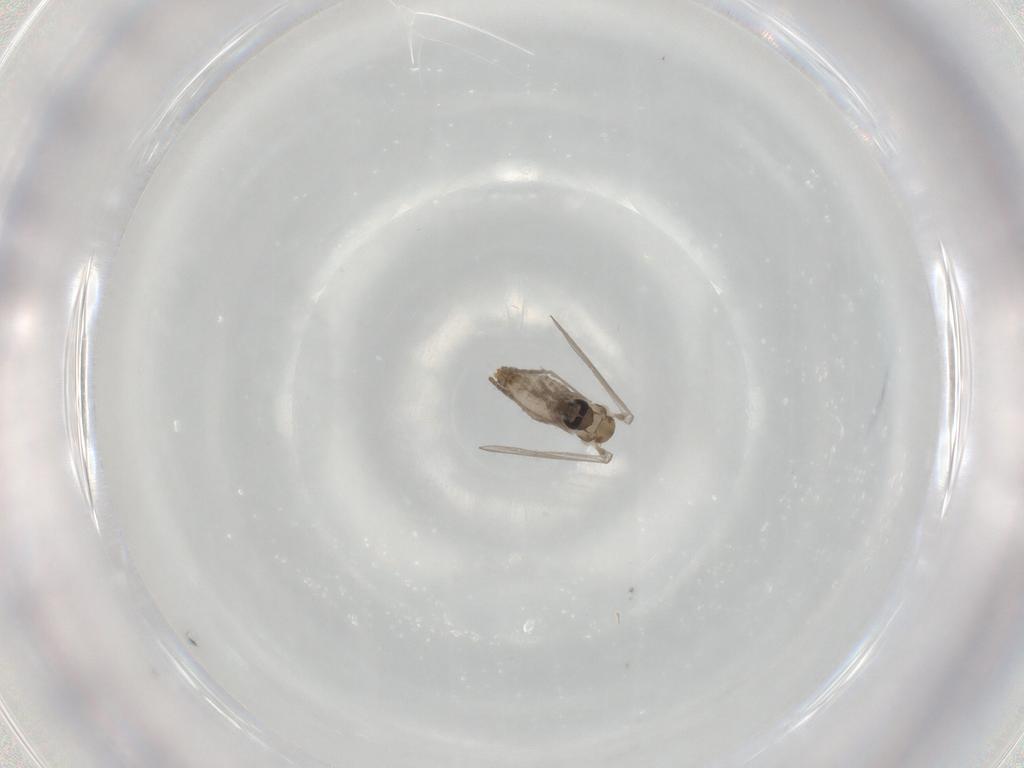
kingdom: Animalia
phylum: Arthropoda
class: Insecta
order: Diptera
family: Psychodidae
